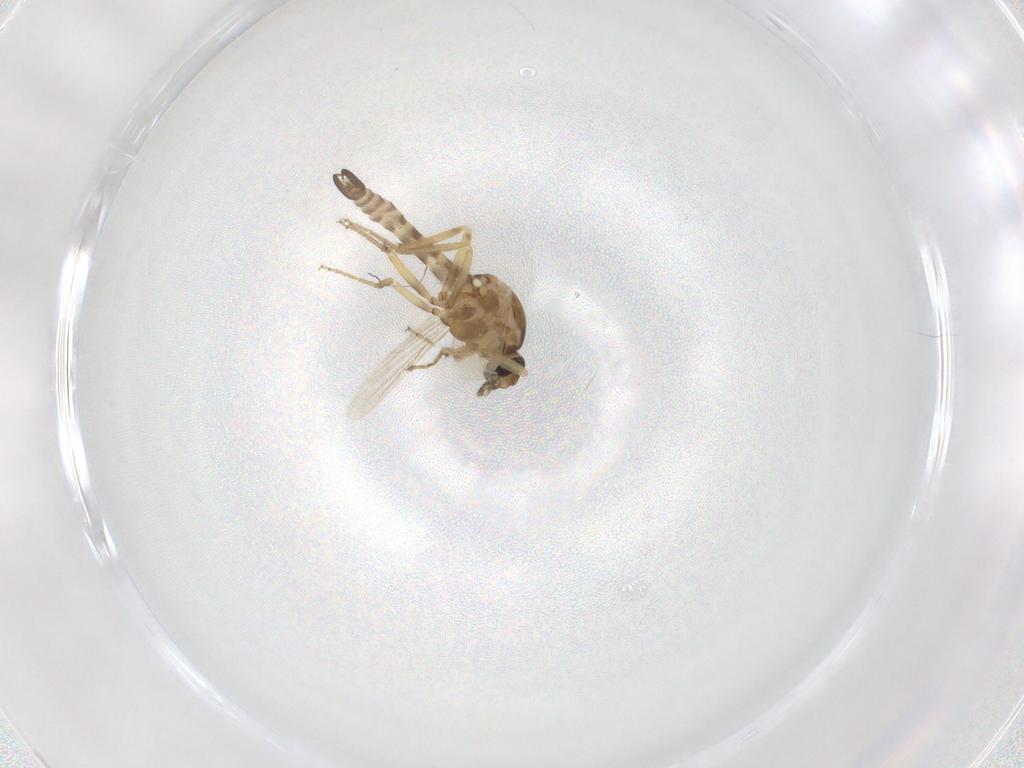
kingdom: Animalia
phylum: Arthropoda
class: Insecta
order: Diptera
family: Ceratopogonidae
